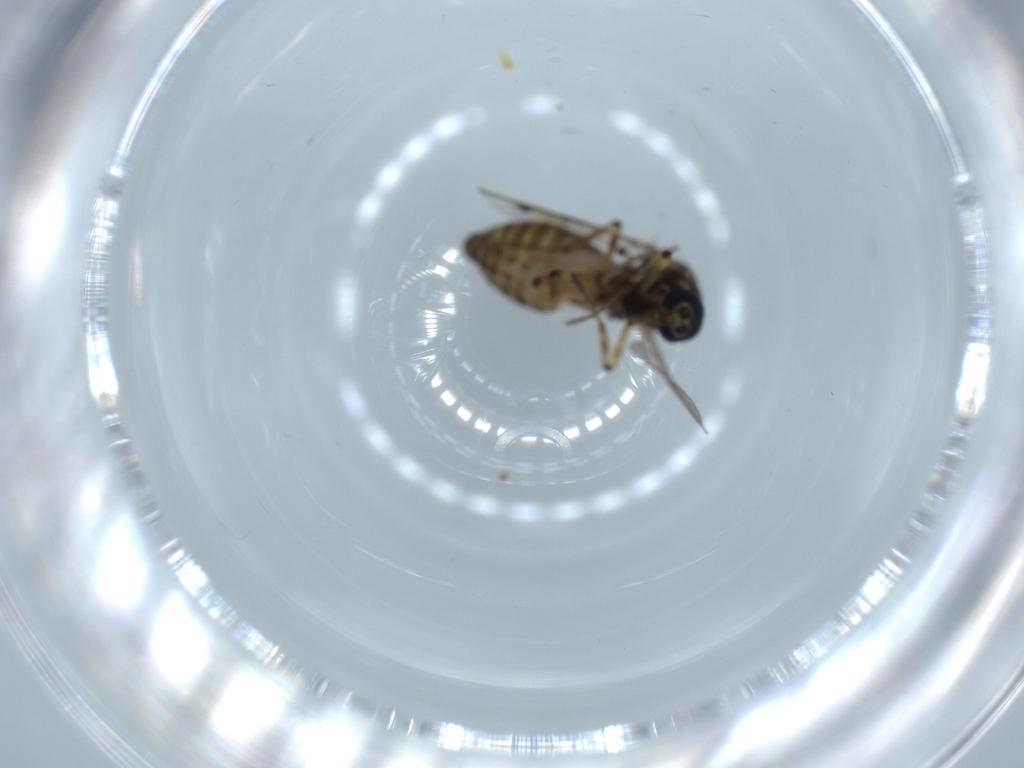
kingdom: Animalia
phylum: Arthropoda
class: Insecta
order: Diptera
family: Ceratopogonidae
